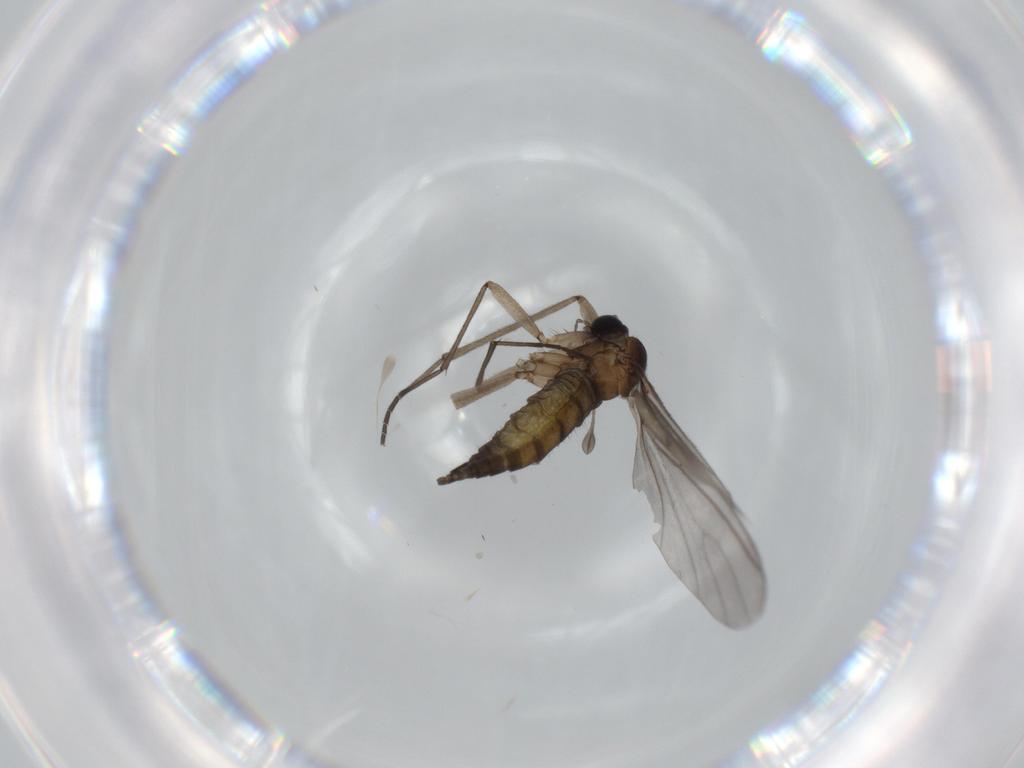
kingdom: Animalia
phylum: Arthropoda
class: Insecta
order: Diptera
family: Sciaridae
